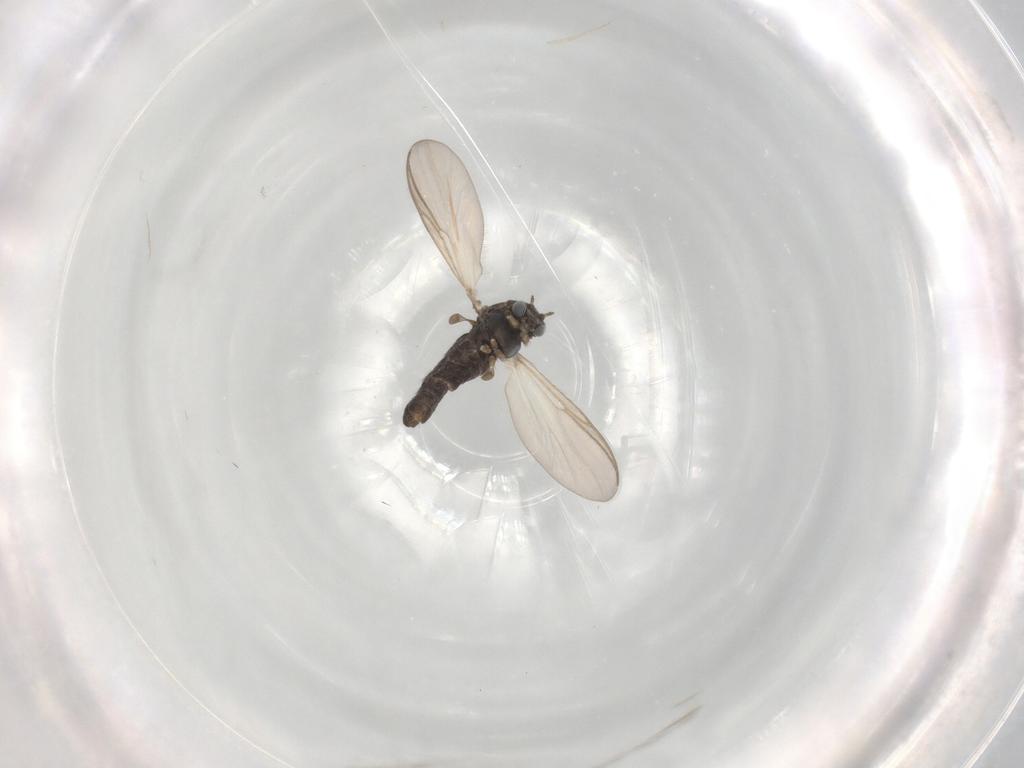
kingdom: Animalia
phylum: Arthropoda
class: Insecta
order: Diptera
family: Chironomidae
